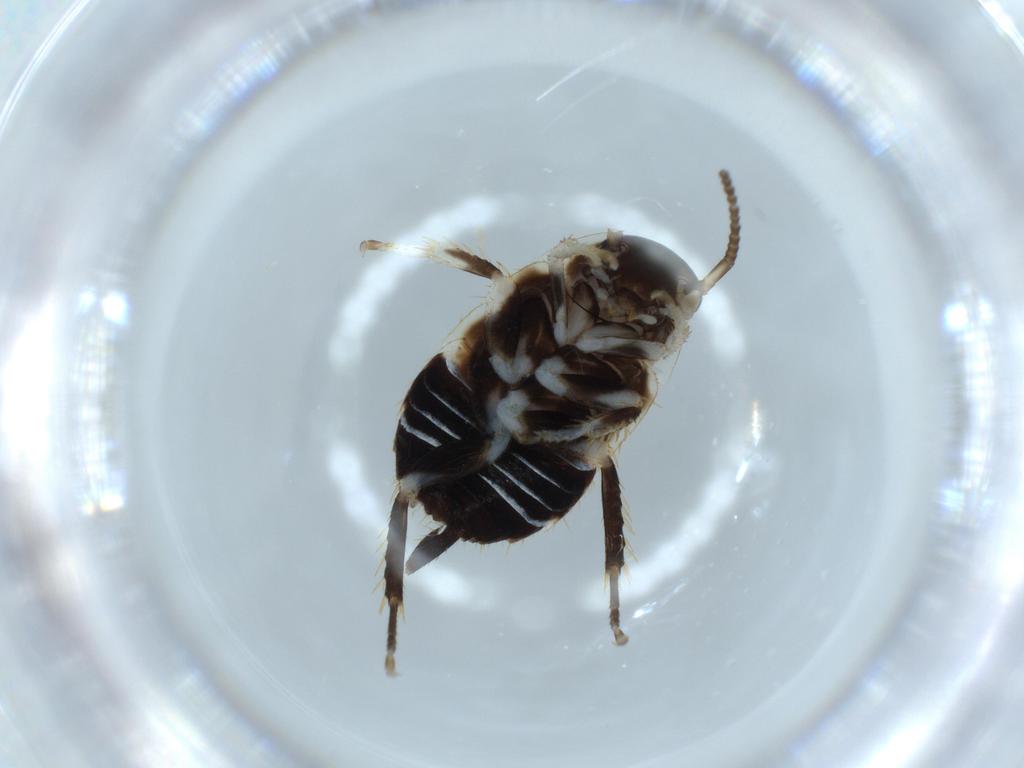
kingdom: Animalia
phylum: Arthropoda
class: Insecta
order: Blattodea
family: Ectobiidae
